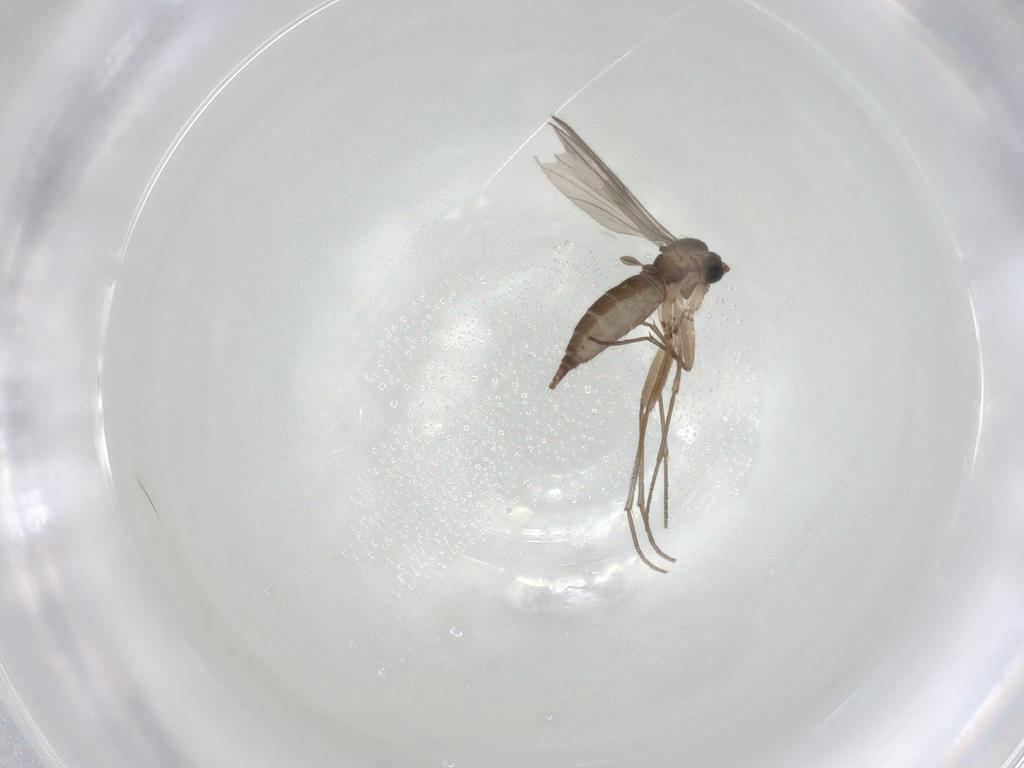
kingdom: Animalia
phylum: Arthropoda
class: Insecta
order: Diptera
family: Sciaridae
